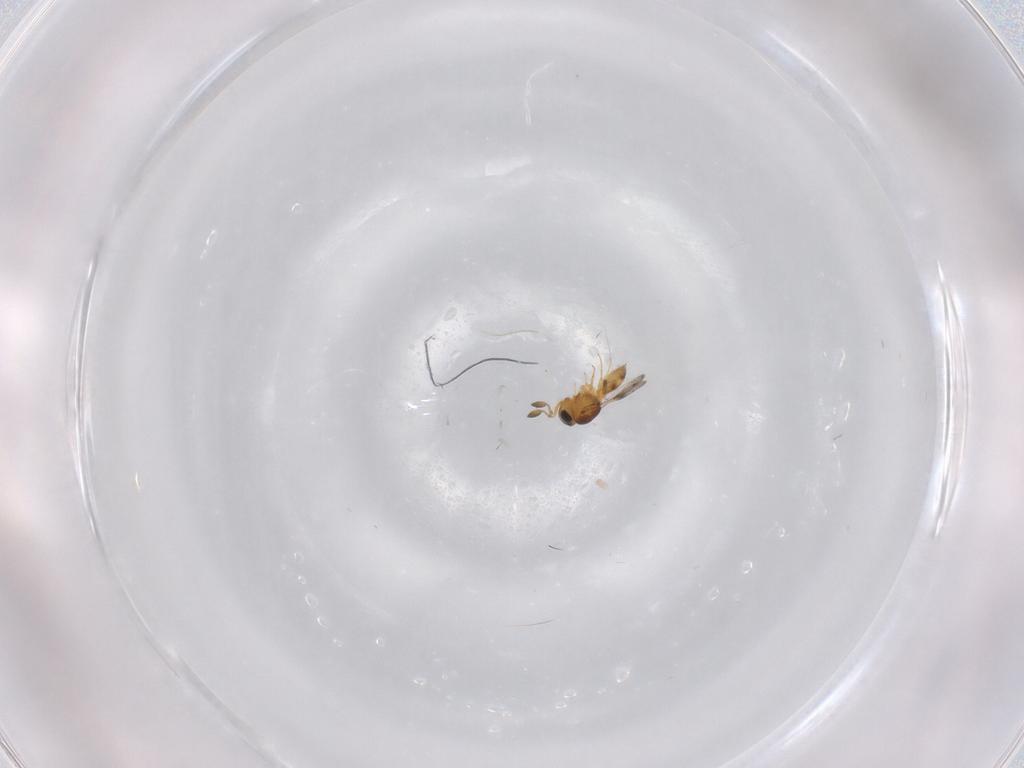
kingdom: Animalia
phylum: Arthropoda
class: Insecta
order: Hymenoptera
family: Scelionidae
